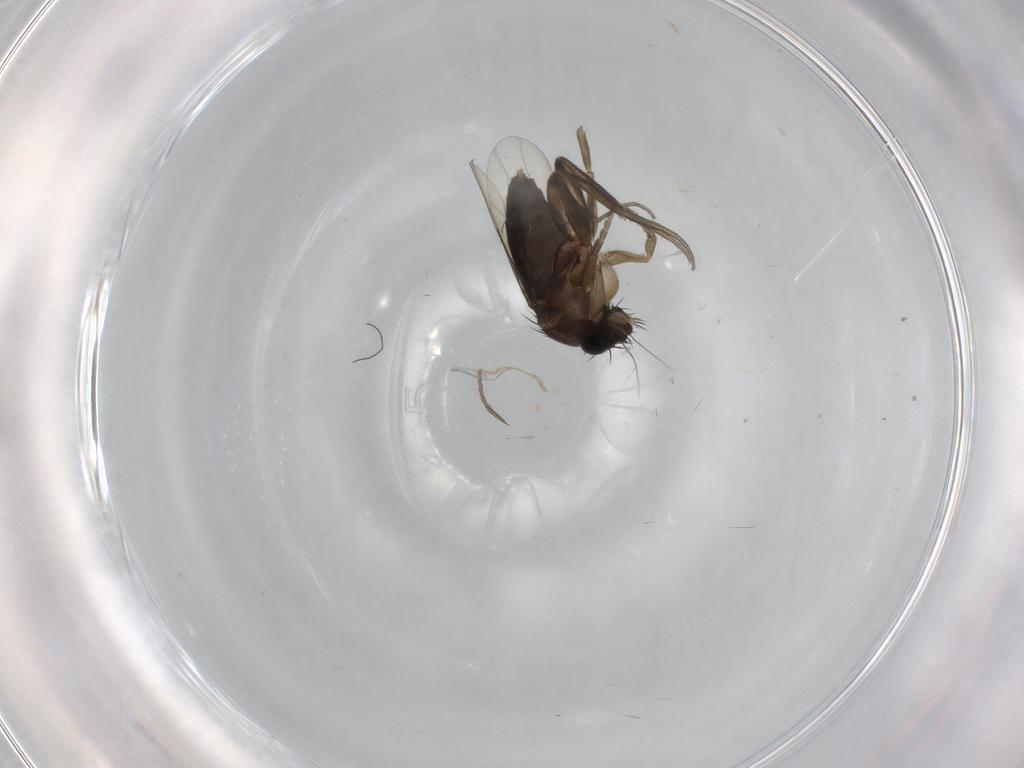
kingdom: Animalia
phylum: Arthropoda
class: Insecta
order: Diptera
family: Phoridae
